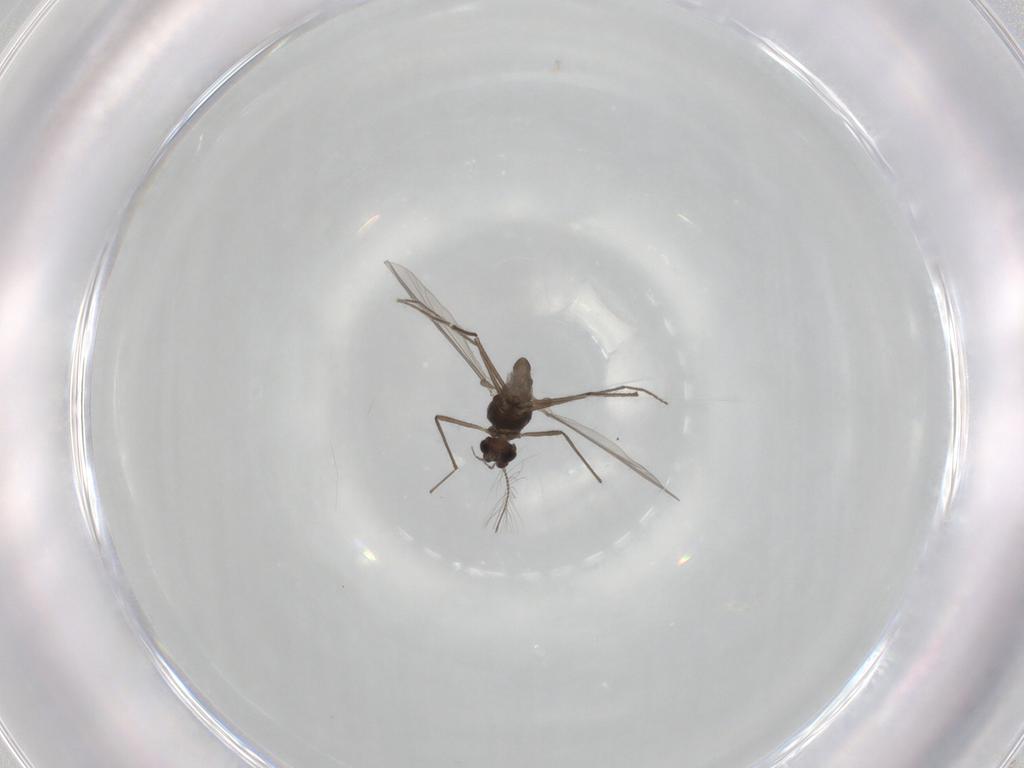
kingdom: Animalia
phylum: Arthropoda
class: Insecta
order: Diptera
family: Chironomidae
